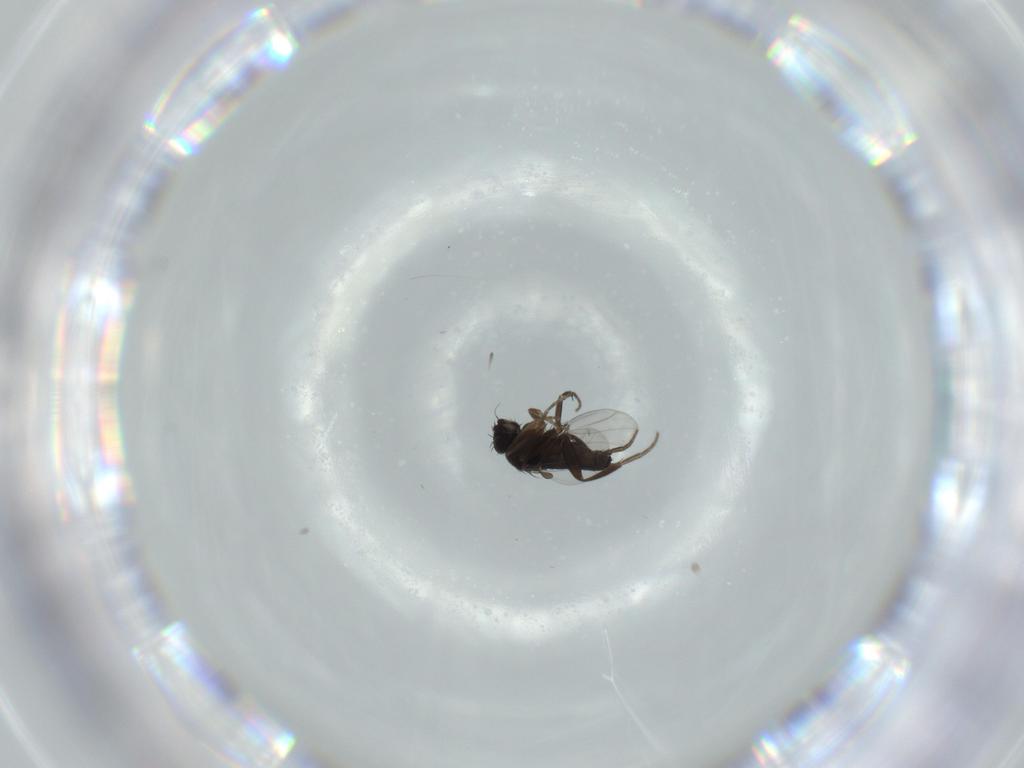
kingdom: Animalia
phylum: Arthropoda
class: Insecta
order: Diptera
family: Phoridae
